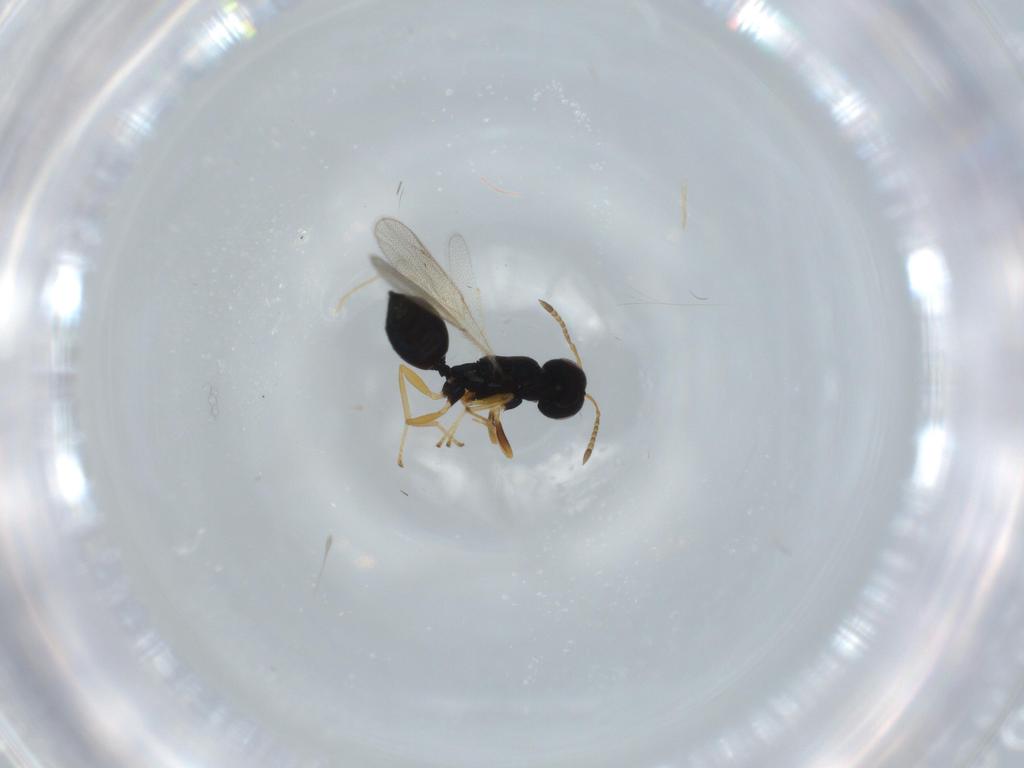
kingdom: Animalia
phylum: Arthropoda
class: Insecta
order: Hymenoptera
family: Pteromalidae
